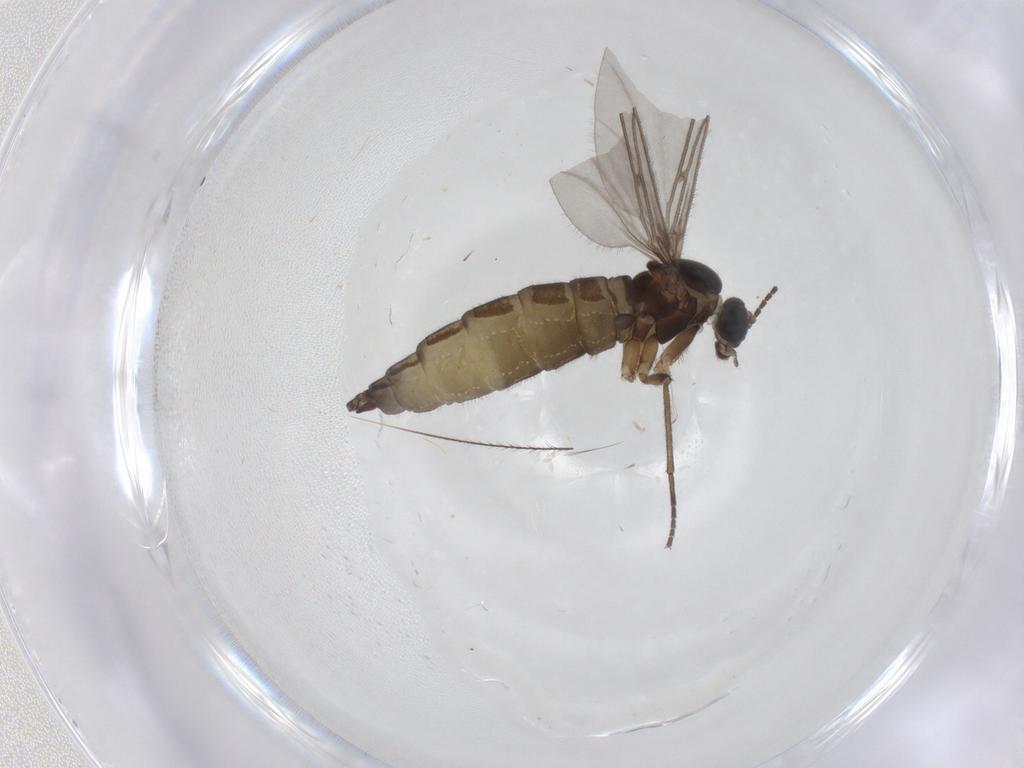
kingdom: Animalia
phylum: Arthropoda
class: Insecta
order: Diptera
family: Sciaridae
